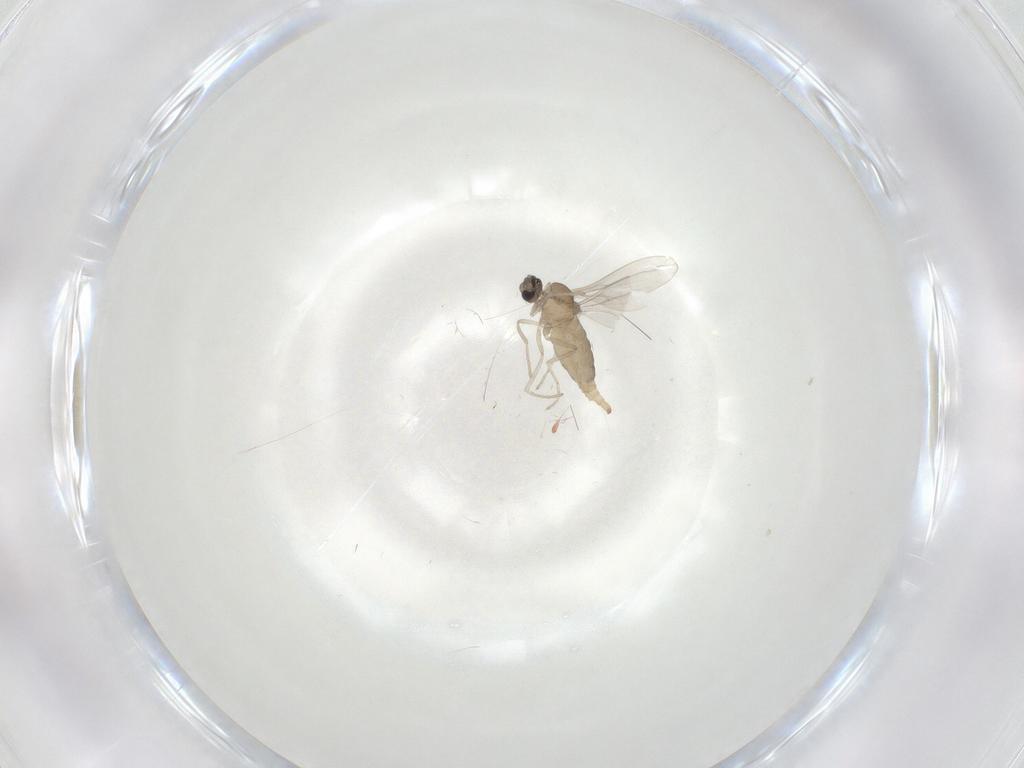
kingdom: Animalia
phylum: Arthropoda
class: Insecta
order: Diptera
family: Cecidomyiidae
